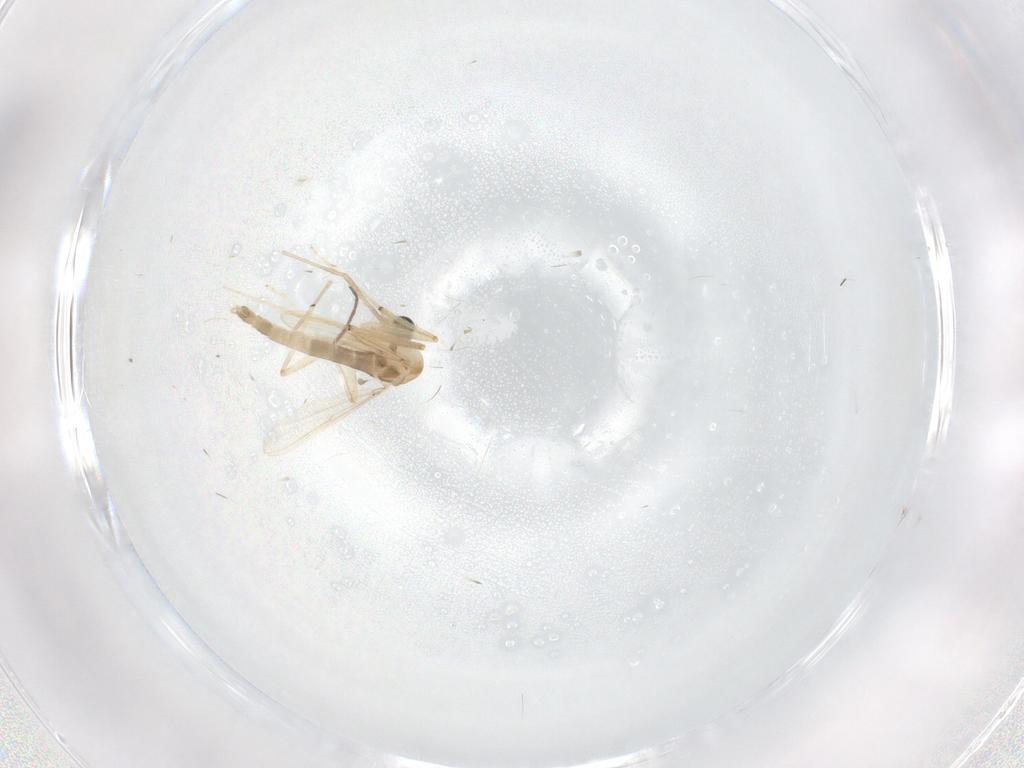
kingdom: Animalia
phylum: Arthropoda
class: Insecta
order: Diptera
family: Chironomidae
